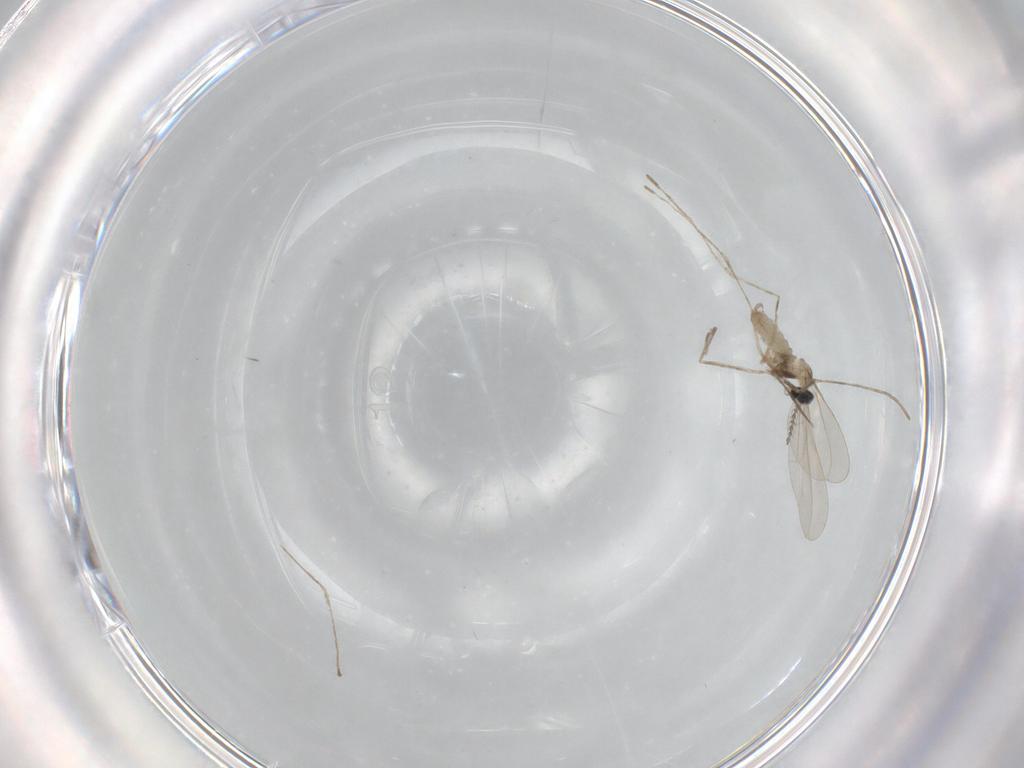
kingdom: Animalia
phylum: Arthropoda
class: Insecta
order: Diptera
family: Cecidomyiidae
